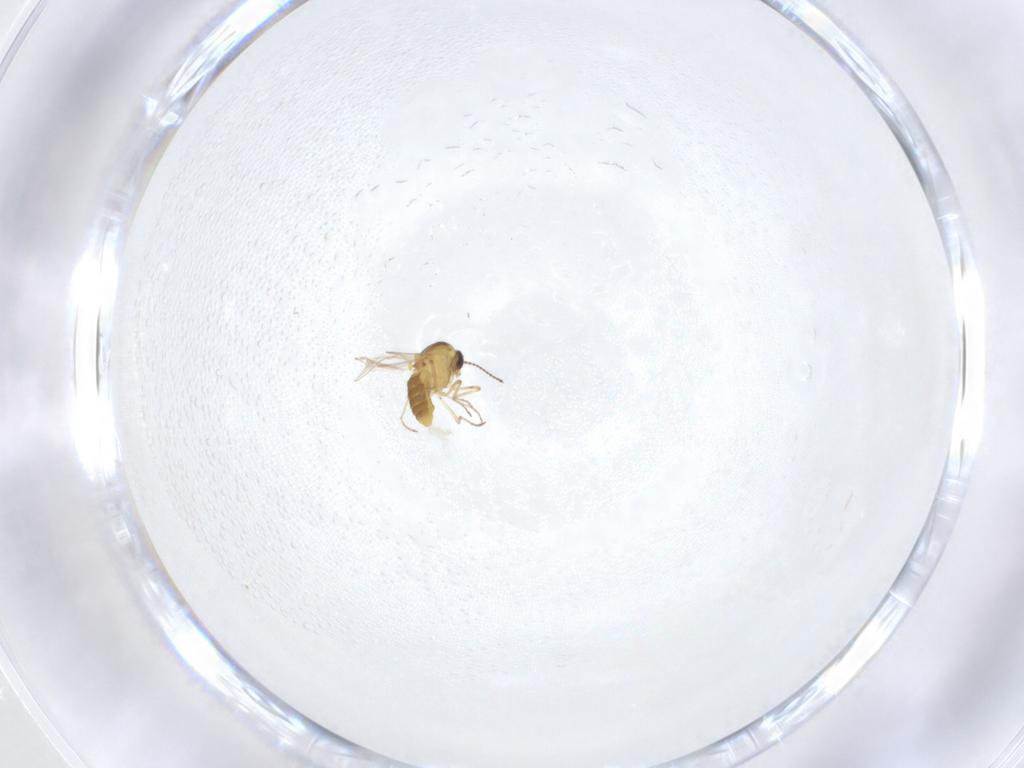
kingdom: Animalia
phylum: Arthropoda
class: Insecta
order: Diptera
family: Ceratopogonidae
